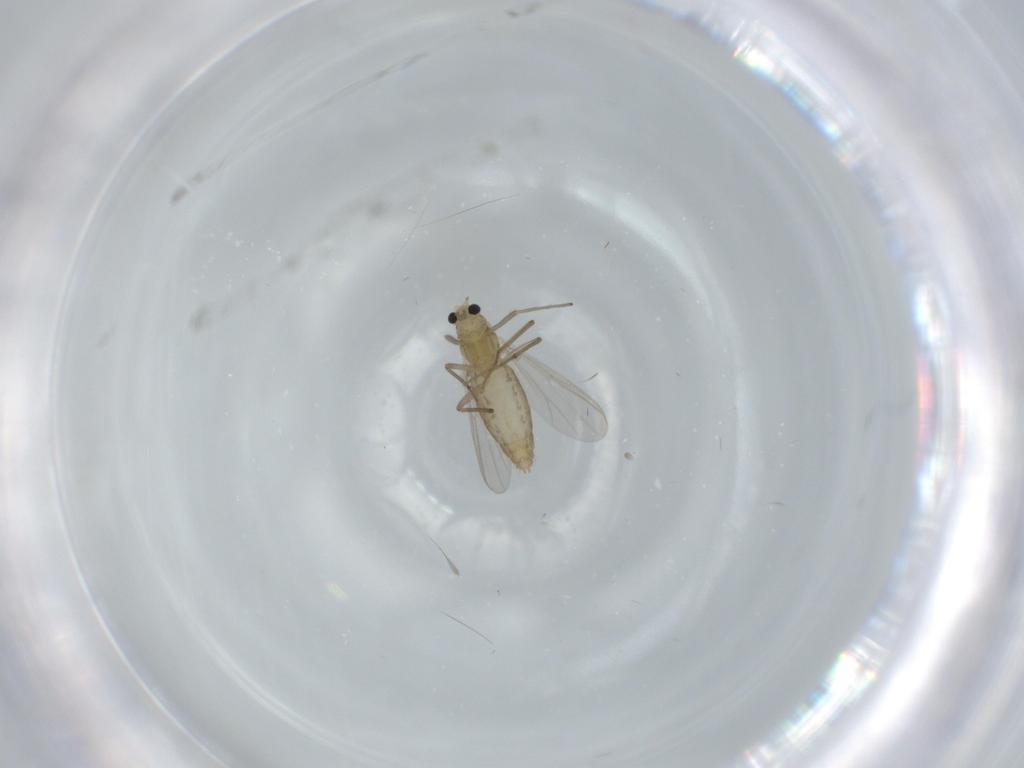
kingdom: Animalia
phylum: Arthropoda
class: Insecta
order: Diptera
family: Chironomidae
